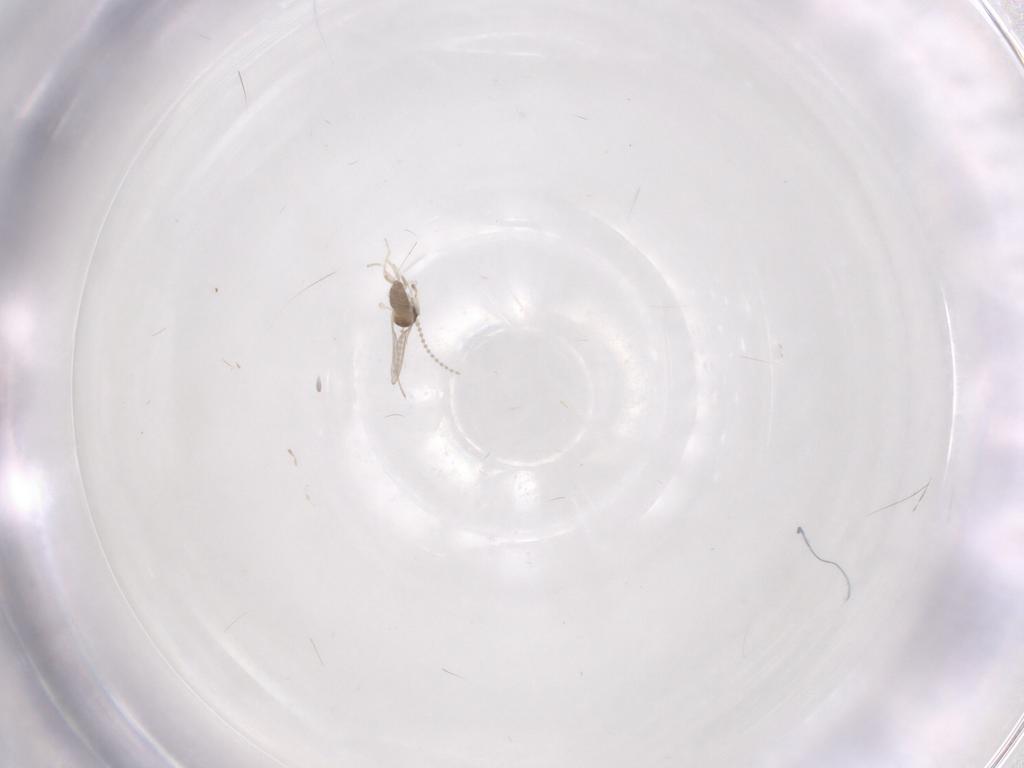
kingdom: Animalia
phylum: Arthropoda
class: Insecta
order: Diptera
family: Cecidomyiidae
